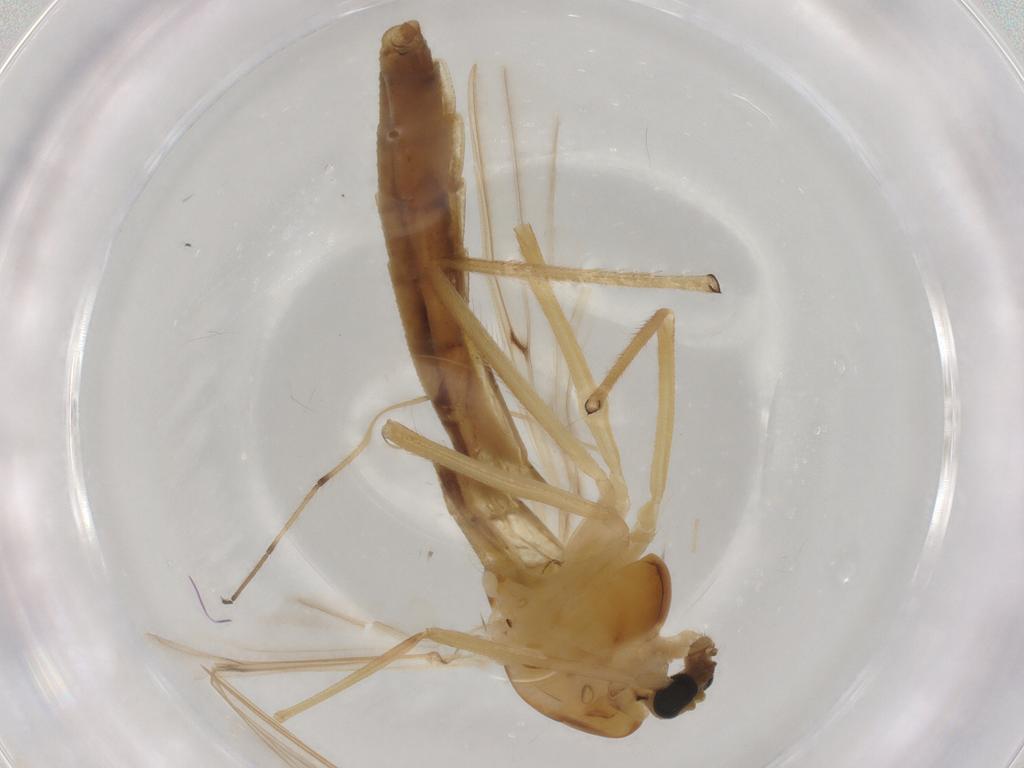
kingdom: Animalia
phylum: Arthropoda
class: Insecta
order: Diptera
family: Chironomidae
